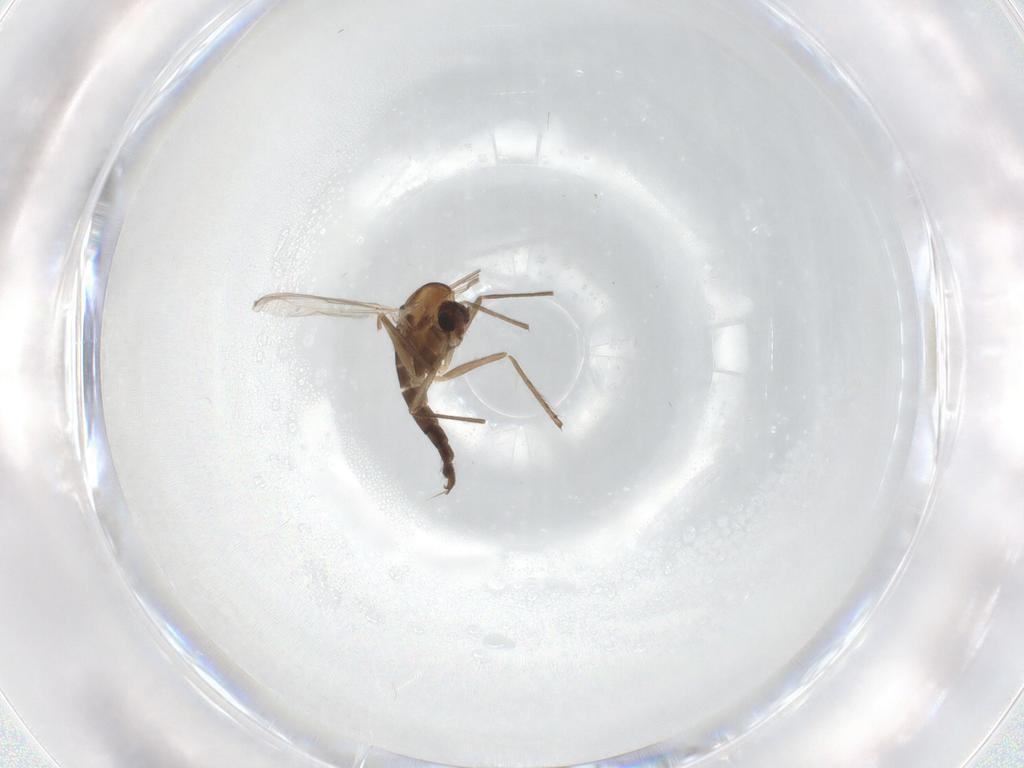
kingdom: Animalia
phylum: Arthropoda
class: Insecta
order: Diptera
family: Chironomidae
